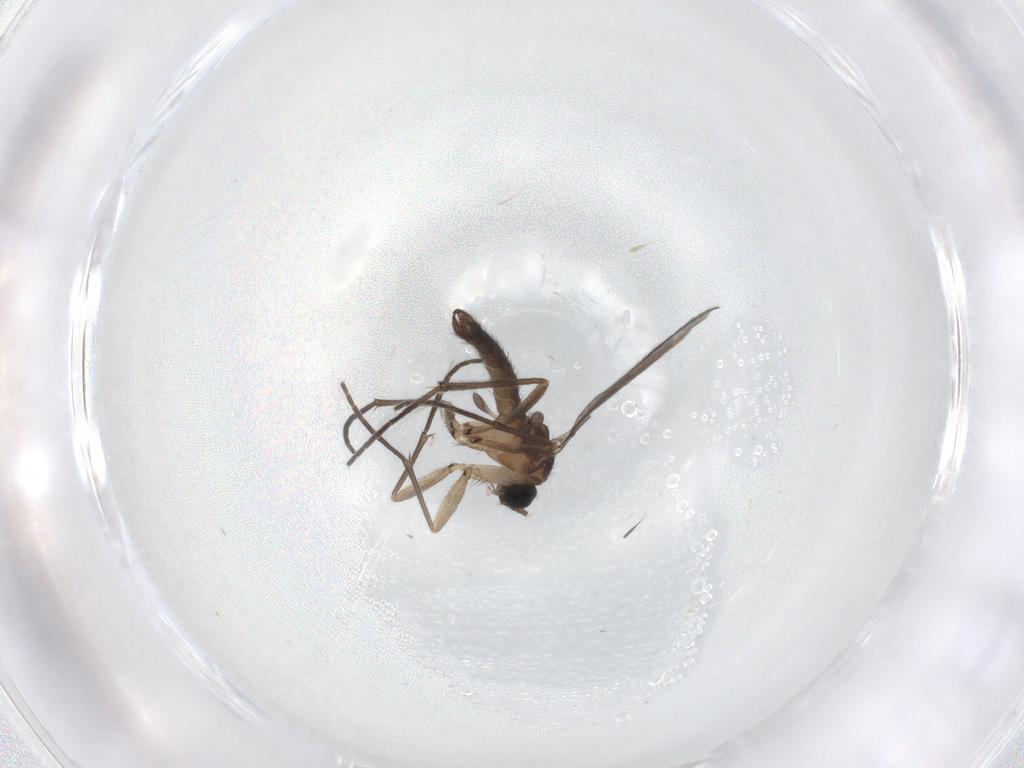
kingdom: Animalia
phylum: Arthropoda
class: Insecta
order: Diptera
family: Sciaridae
